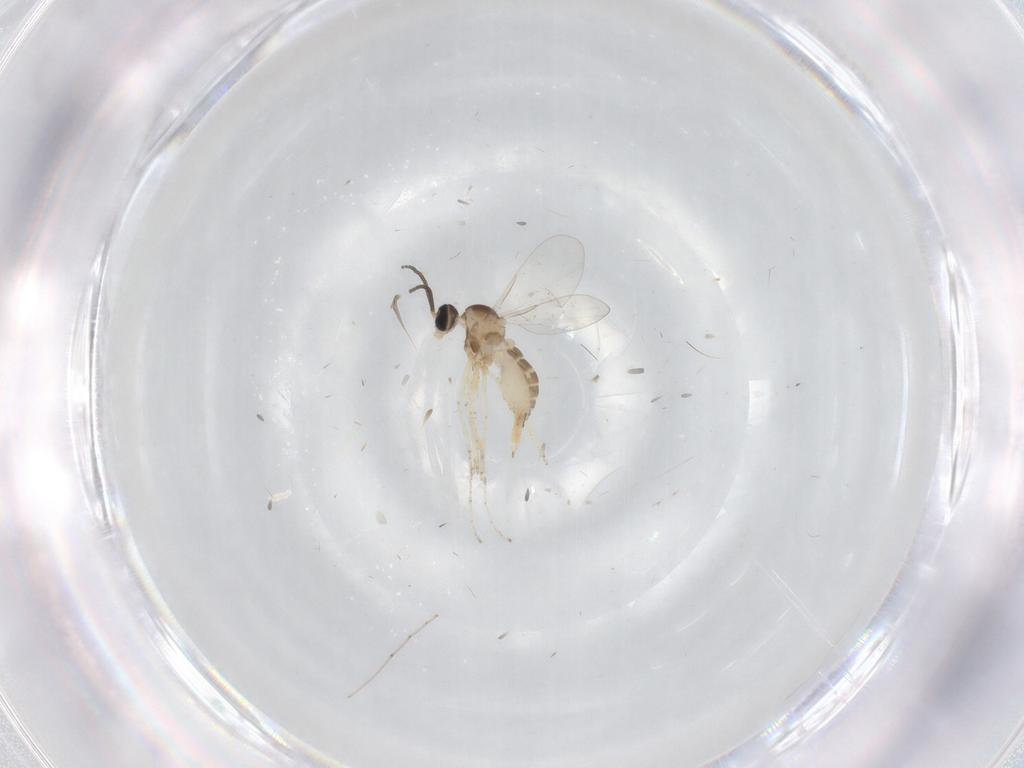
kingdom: Animalia
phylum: Arthropoda
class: Insecta
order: Diptera
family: Cecidomyiidae
